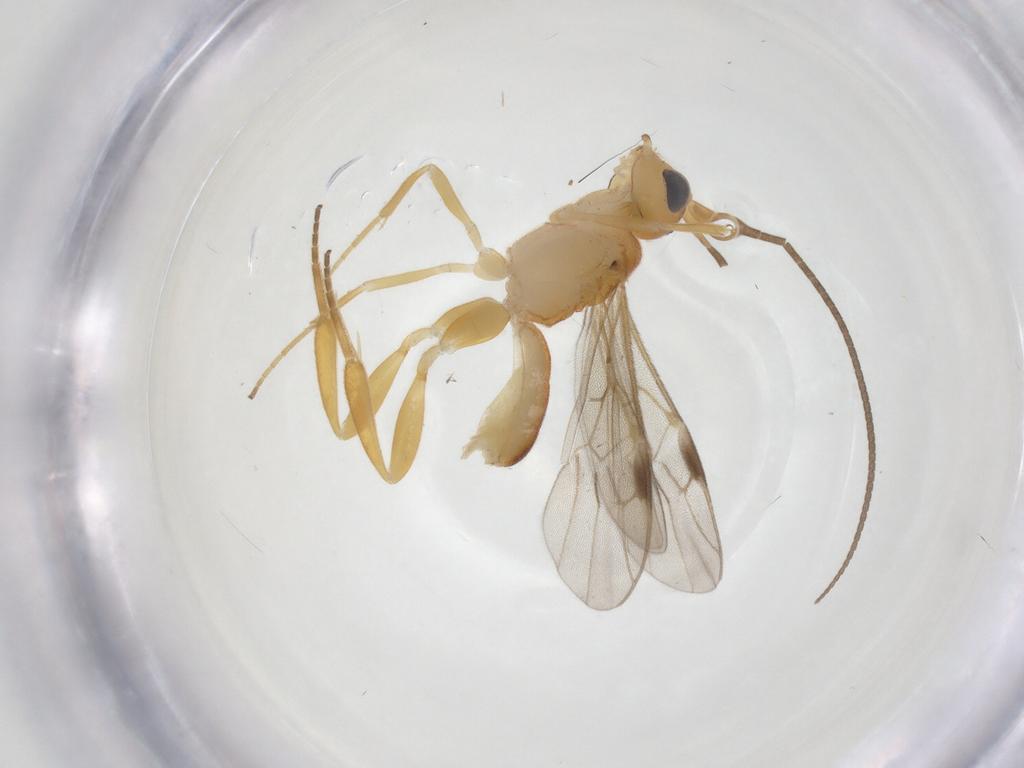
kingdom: Animalia
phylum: Arthropoda
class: Insecta
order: Hymenoptera
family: Braconidae
